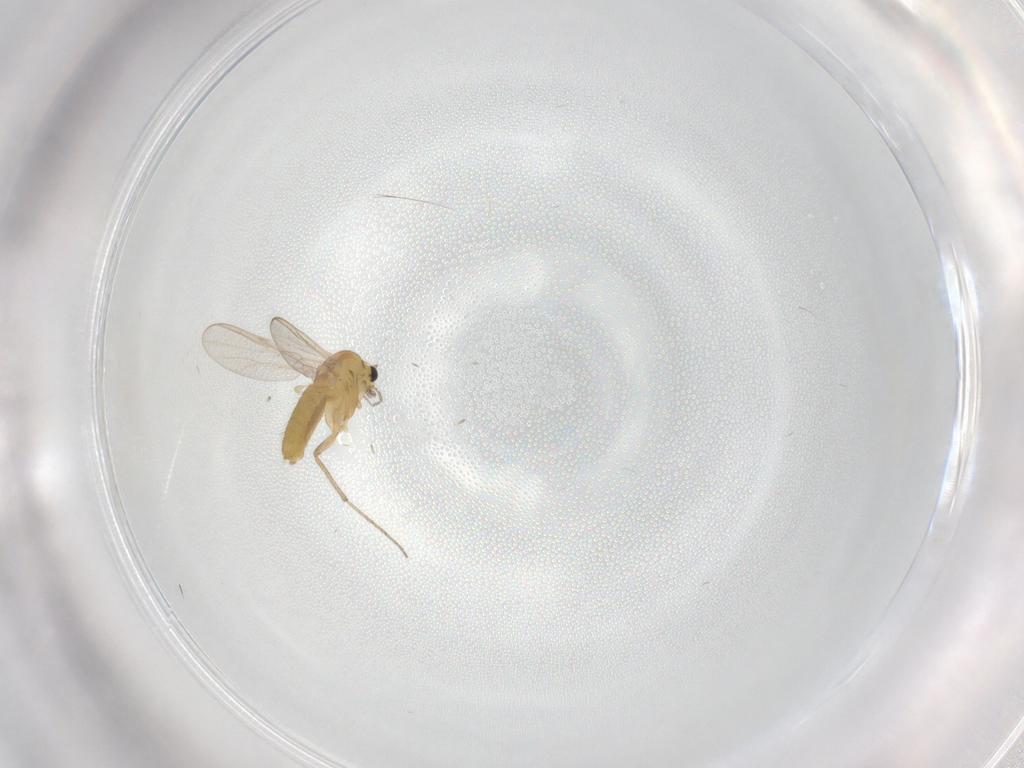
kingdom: Animalia
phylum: Arthropoda
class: Insecta
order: Diptera
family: Chironomidae
